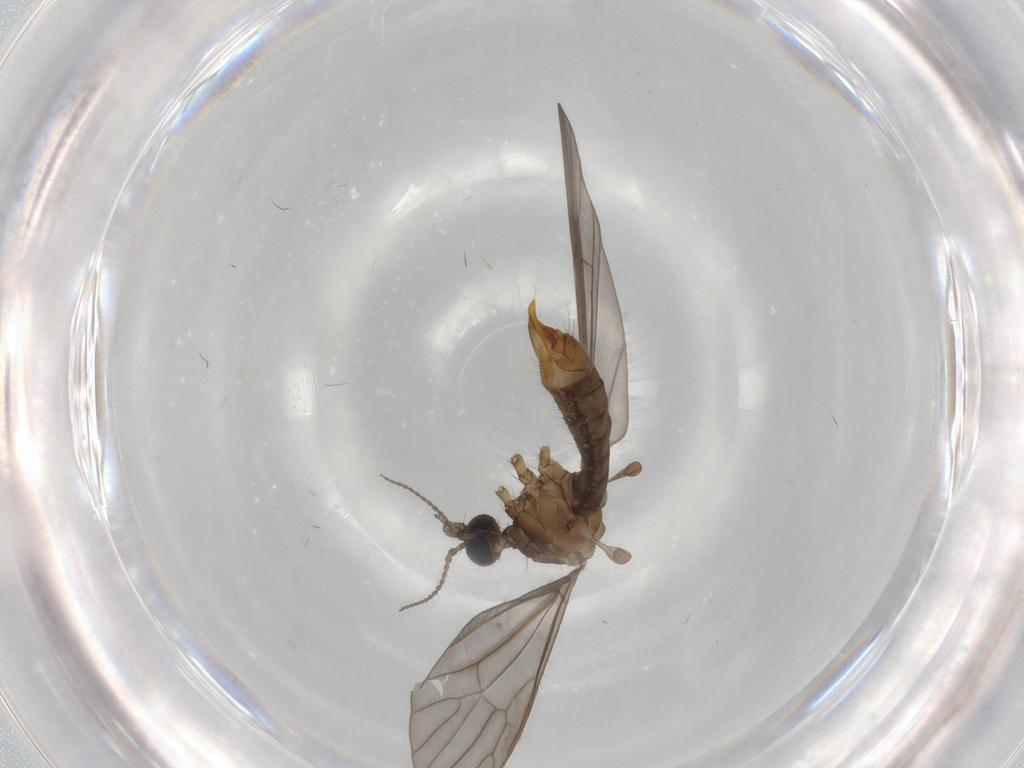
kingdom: Animalia
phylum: Arthropoda
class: Insecta
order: Diptera
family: Chironomidae
